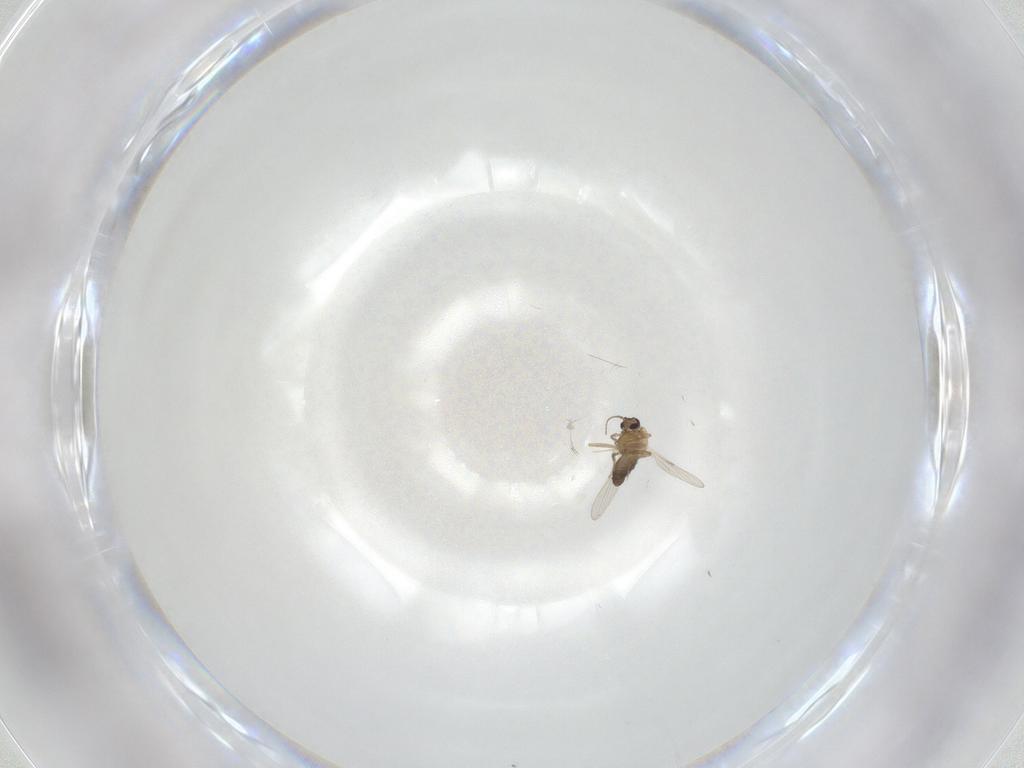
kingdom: Animalia
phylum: Arthropoda
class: Insecta
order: Diptera
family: Ceratopogonidae
